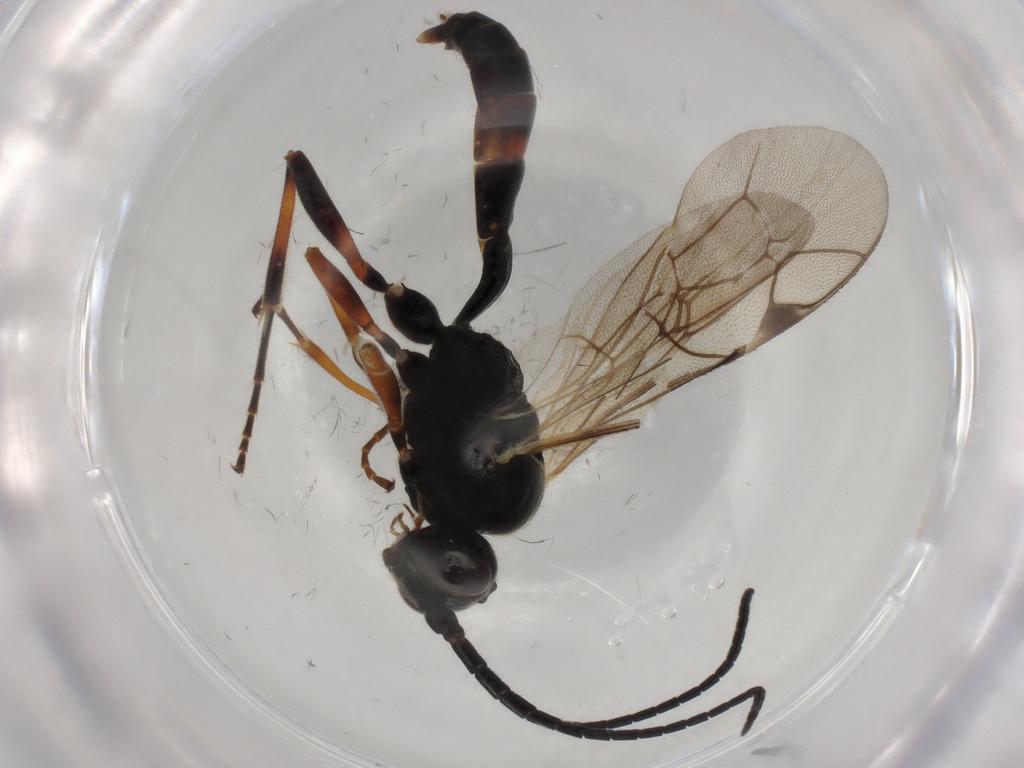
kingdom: Animalia
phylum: Arthropoda
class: Insecta
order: Hymenoptera
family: Ichneumonidae
